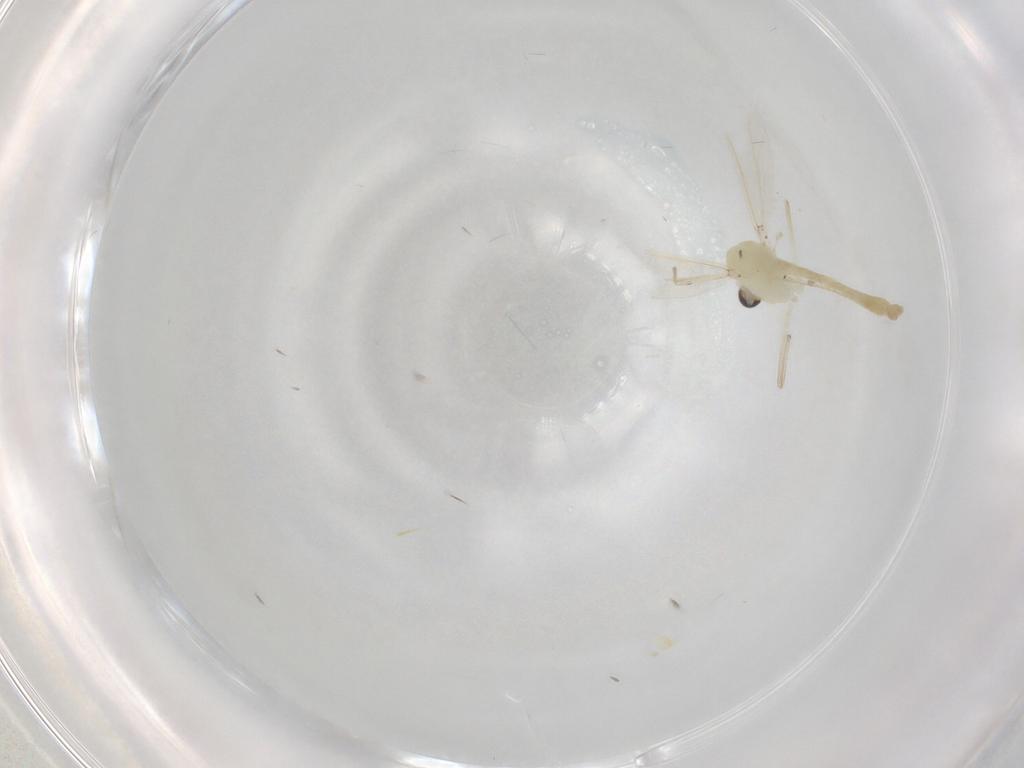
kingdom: Animalia
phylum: Arthropoda
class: Insecta
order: Diptera
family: Chironomidae
